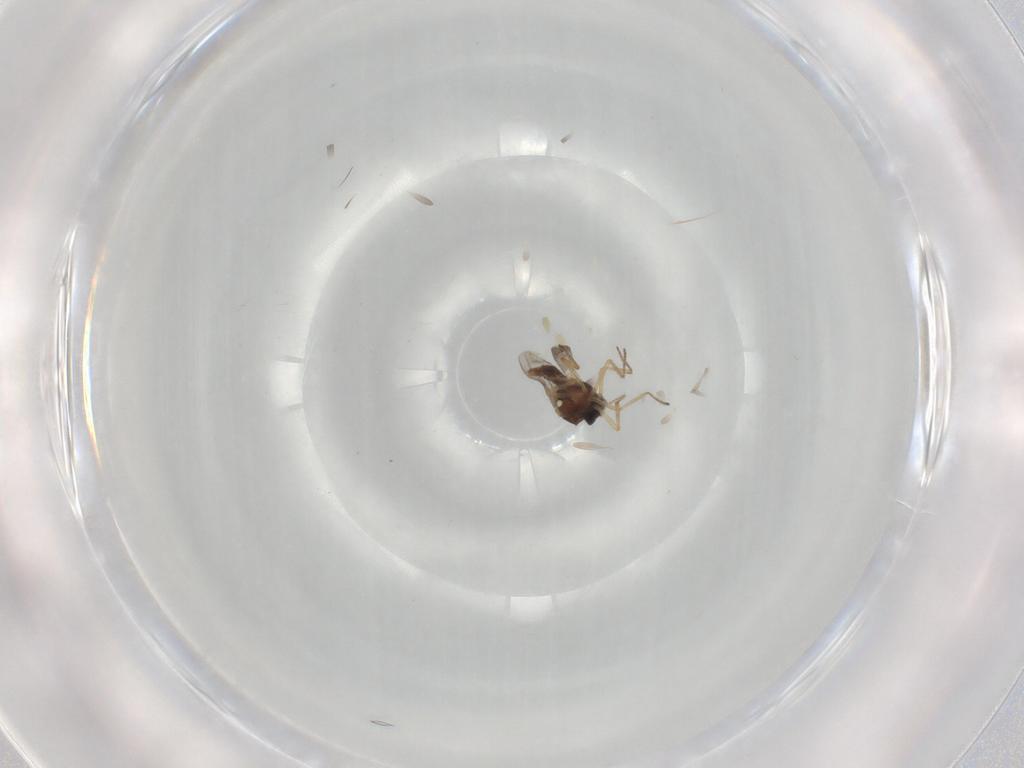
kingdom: Animalia
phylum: Arthropoda
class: Insecta
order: Diptera
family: Ceratopogonidae
